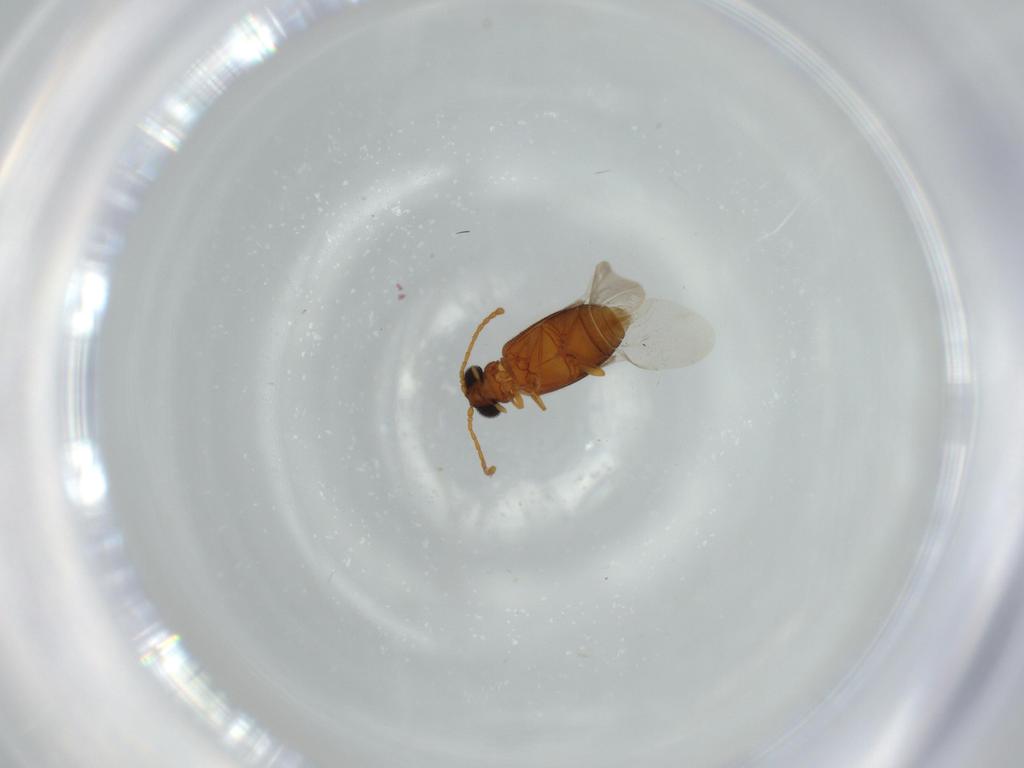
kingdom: Animalia
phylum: Arthropoda
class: Insecta
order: Coleoptera
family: Aderidae
